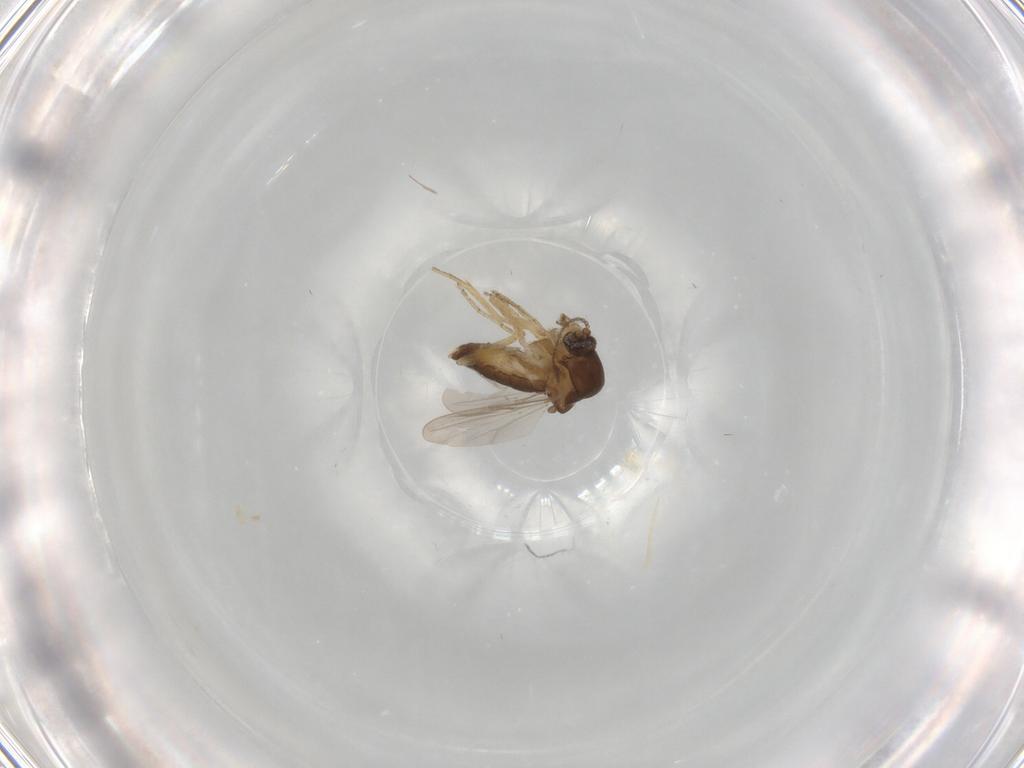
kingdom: Animalia
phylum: Arthropoda
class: Insecta
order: Diptera
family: Ceratopogonidae
